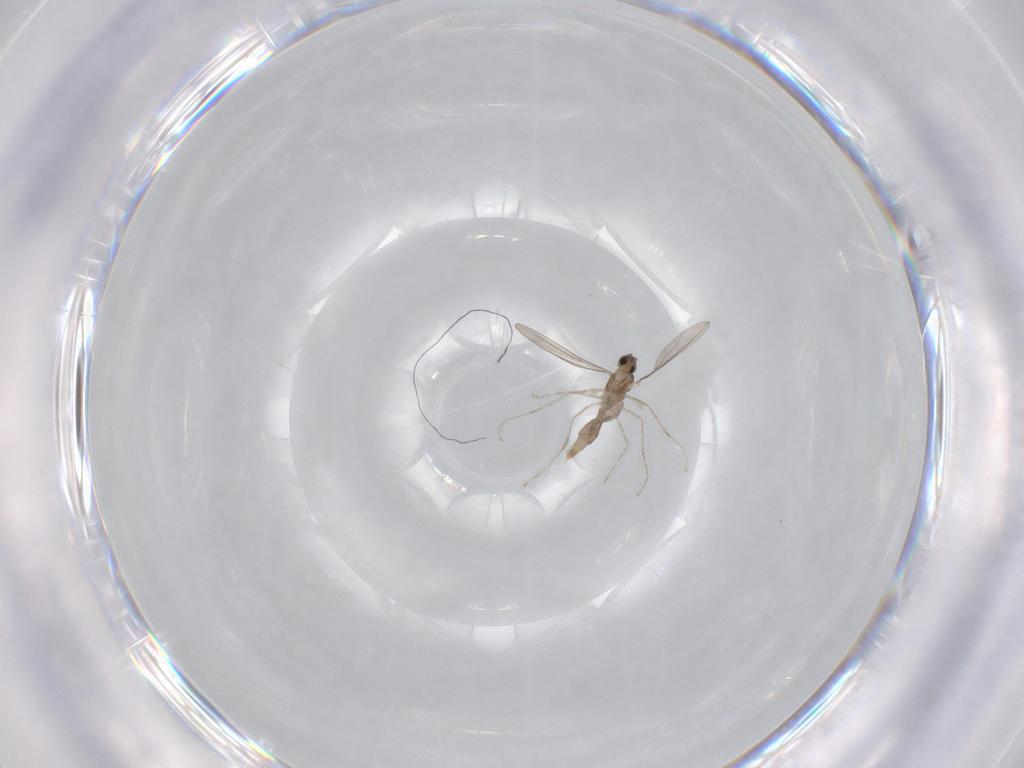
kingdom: Animalia
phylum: Arthropoda
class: Insecta
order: Diptera
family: Cecidomyiidae
